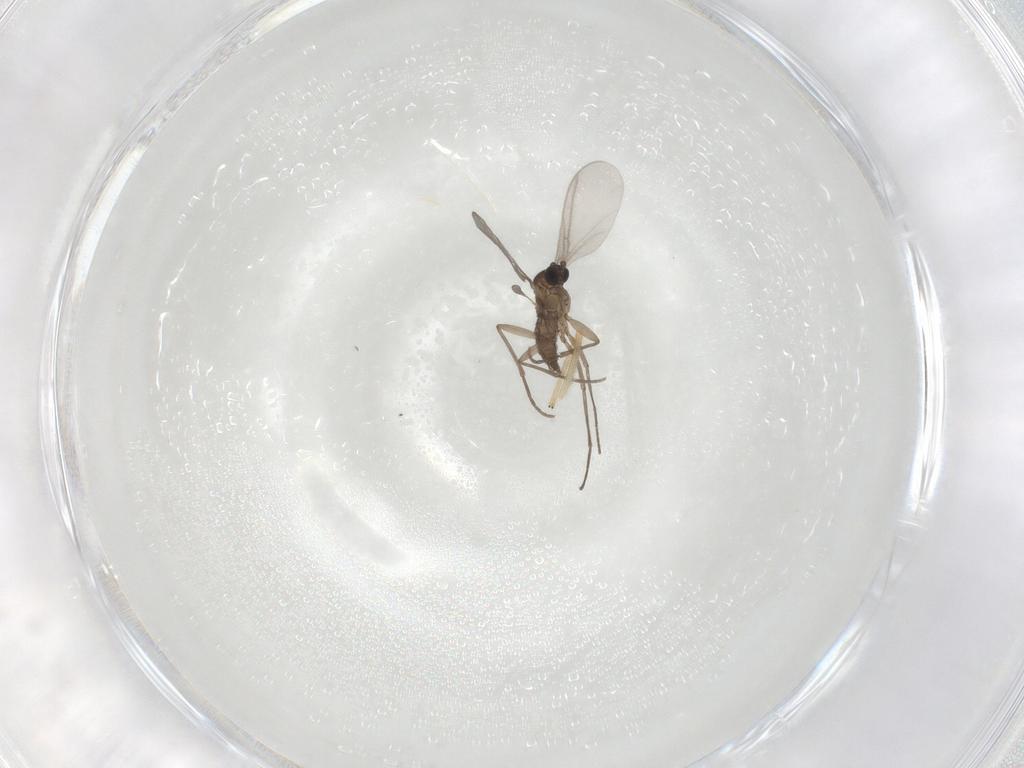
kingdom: Animalia
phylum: Arthropoda
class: Insecta
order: Diptera
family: Sciaridae
